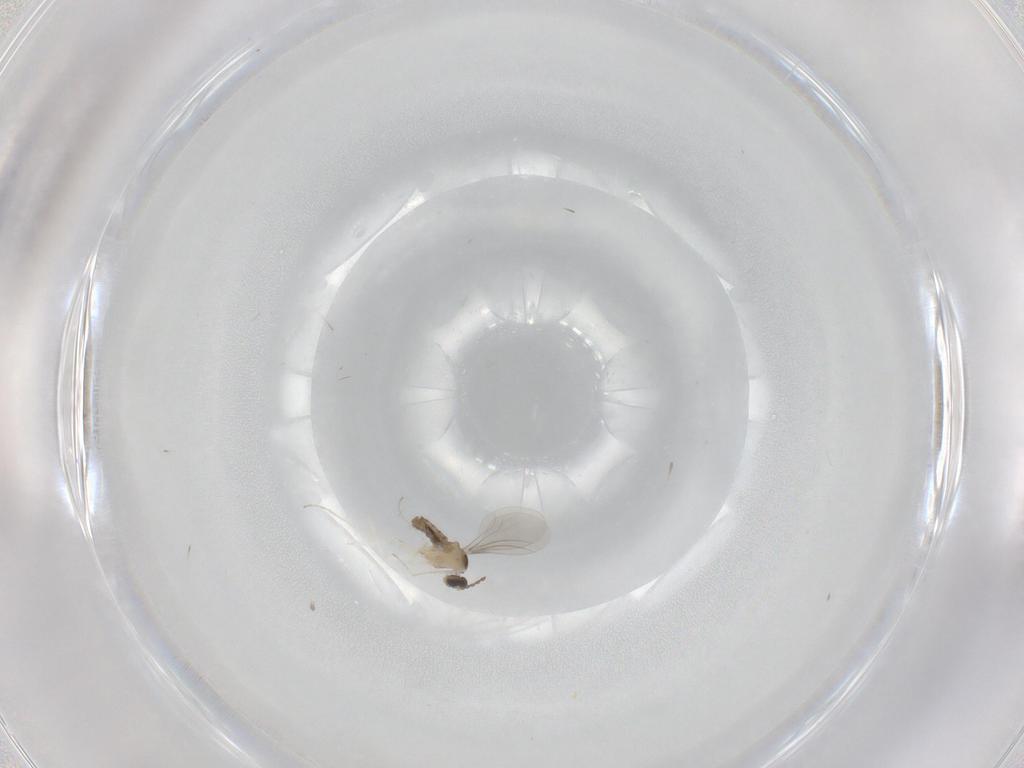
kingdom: Animalia
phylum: Arthropoda
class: Insecta
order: Diptera
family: Cecidomyiidae
